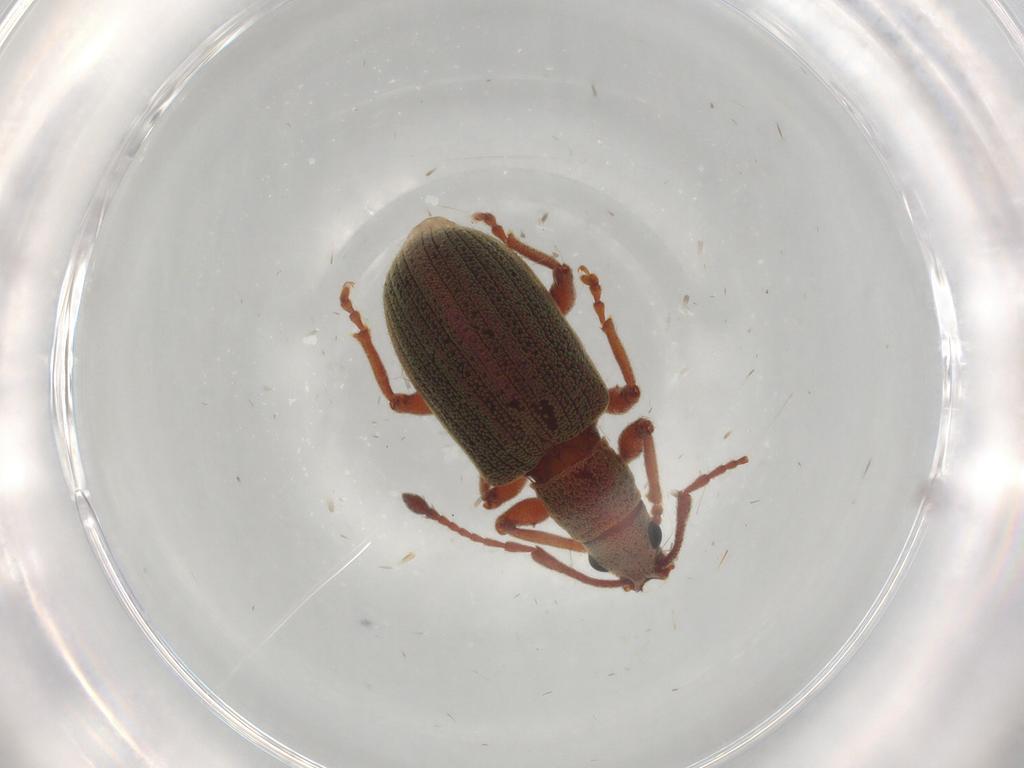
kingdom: Animalia
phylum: Arthropoda
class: Insecta
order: Coleoptera
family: Curculionidae
